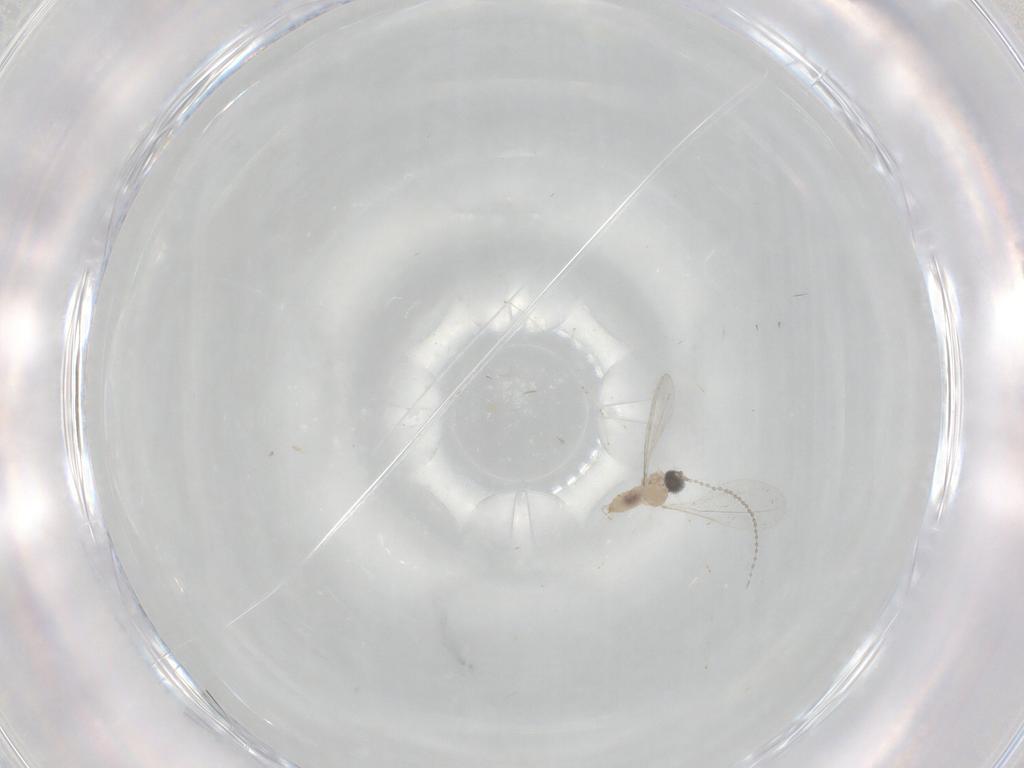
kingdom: Animalia
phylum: Arthropoda
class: Insecta
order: Diptera
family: Cecidomyiidae
